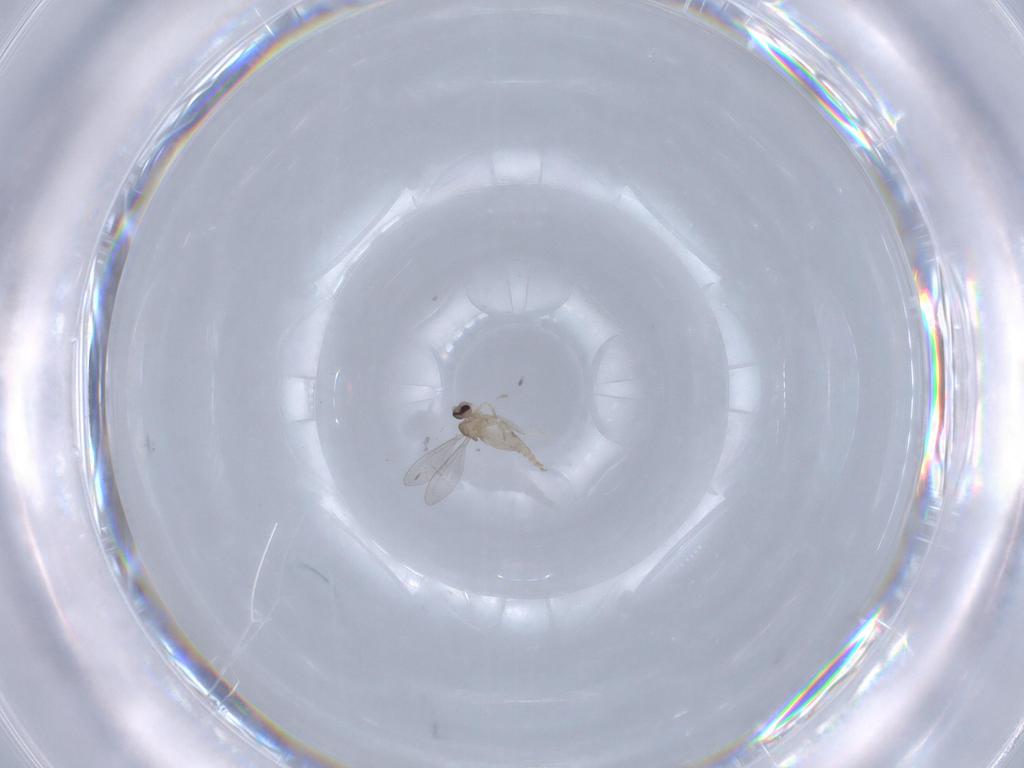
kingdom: Animalia
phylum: Arthropoda
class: Insecta
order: Diptera
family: Cecidomyiidae
